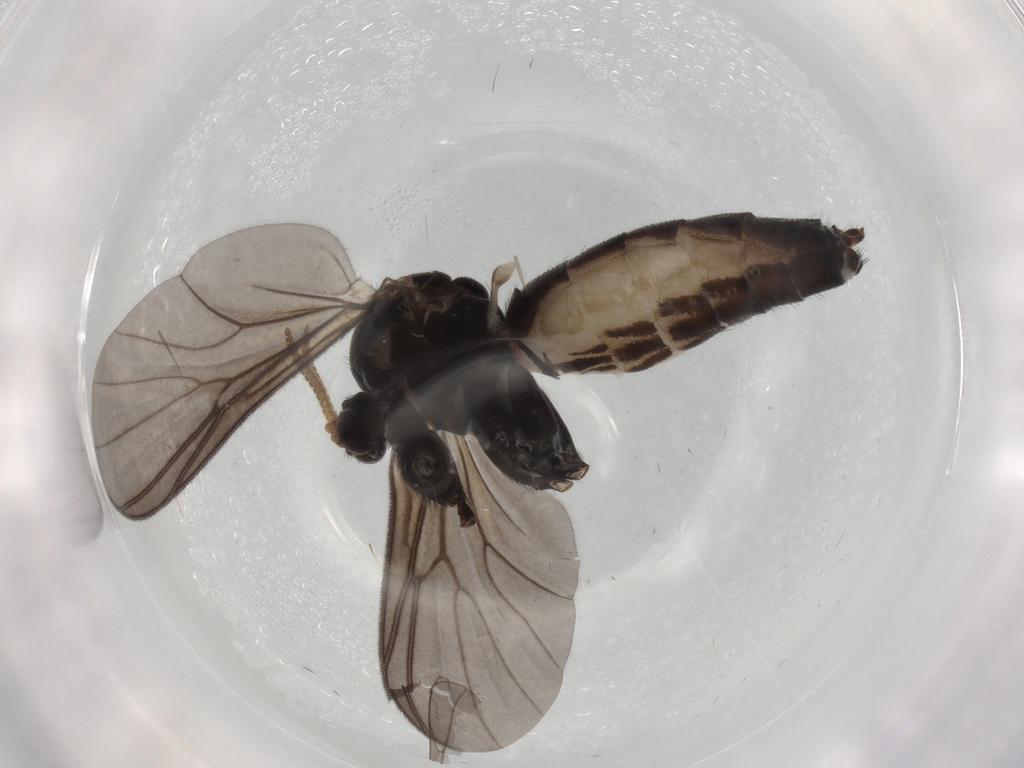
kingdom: Animalia
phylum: Arthropoda
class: Insecta
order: Diptera
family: Mycetophilidae
